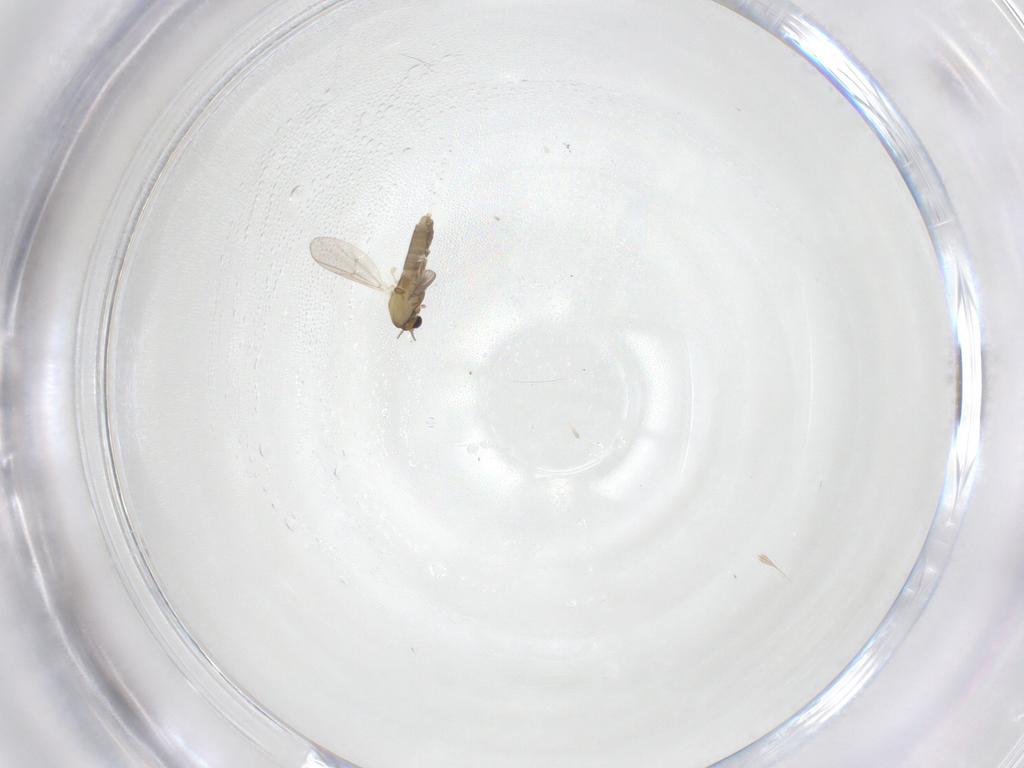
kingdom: Animalia
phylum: Arthropoda
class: Insecta
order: Diptera
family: Chironomidae
